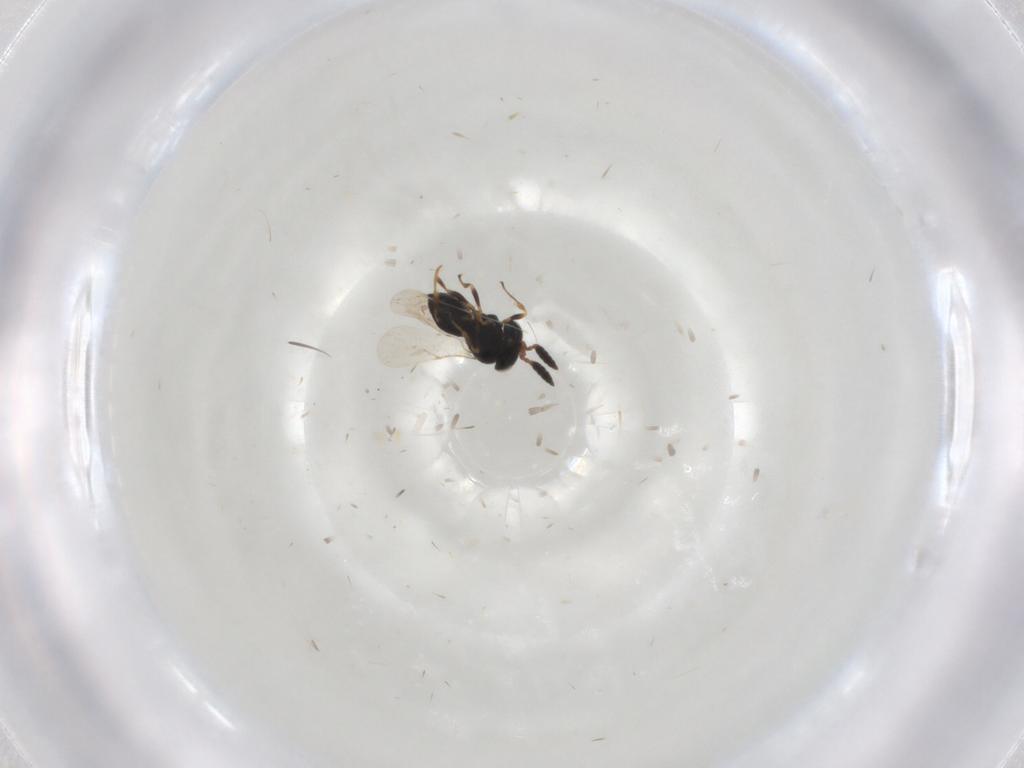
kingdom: Animalia
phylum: Arthropoda
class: Insecta
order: Hymenoptera
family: Scelionidae
